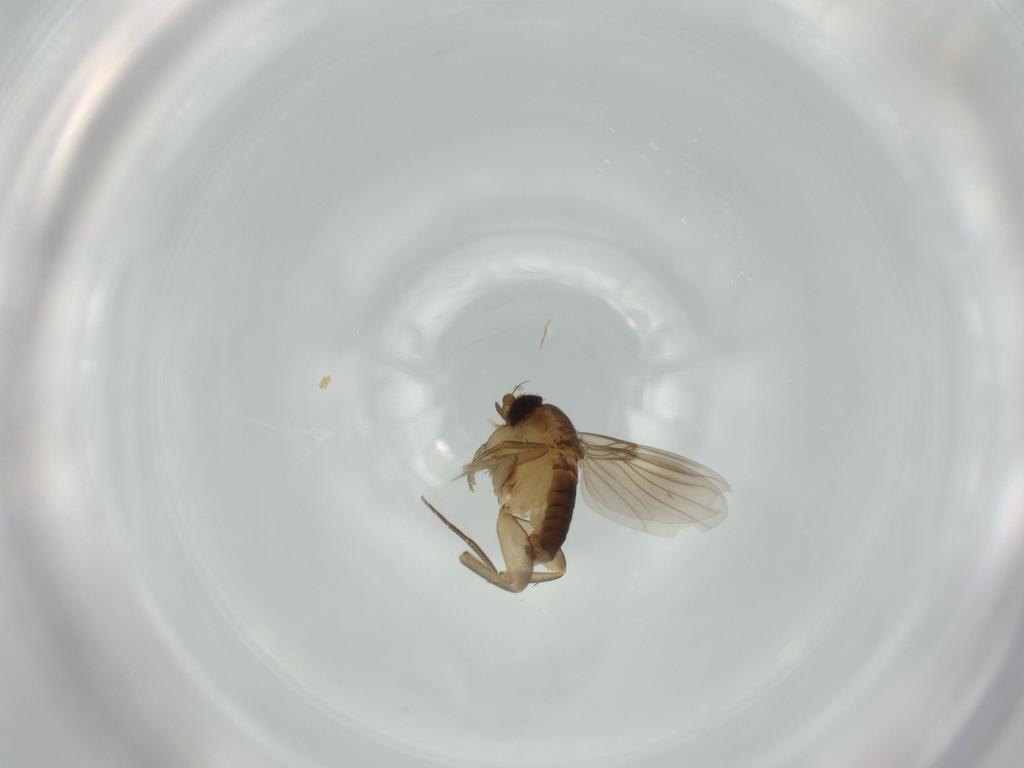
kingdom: Animalia
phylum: Arthropoda
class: Insecta
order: Diptera
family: Phoridae
